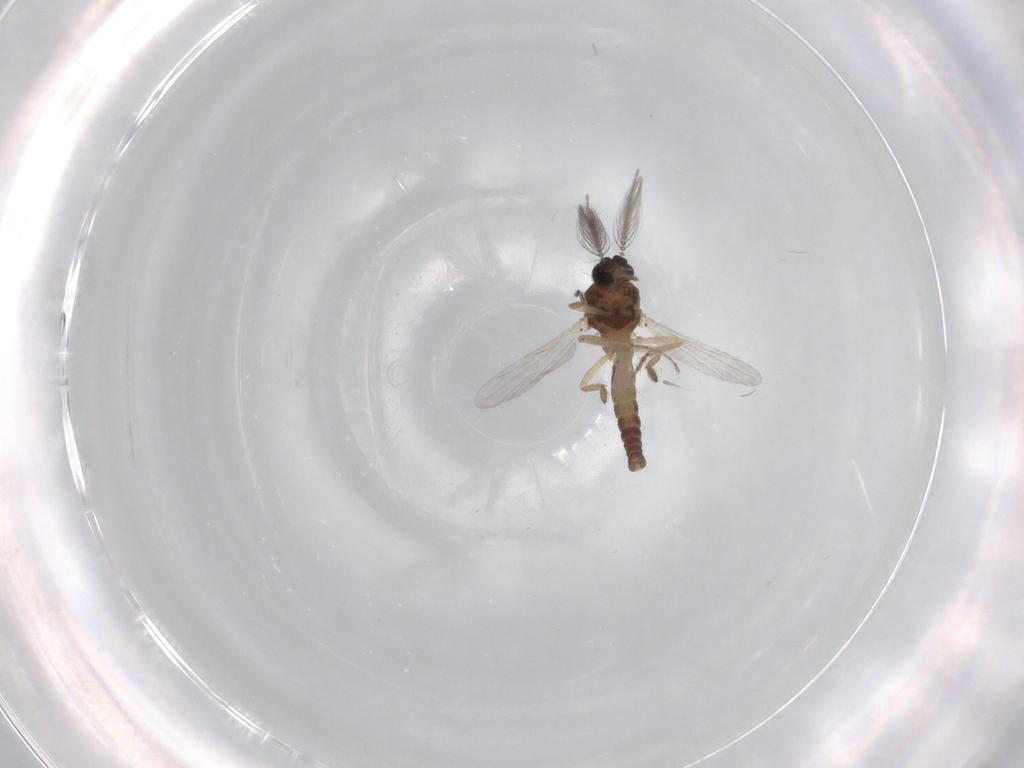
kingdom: Animalia
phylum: Arthropoda
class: Insecta
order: Diptera
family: Ceratopogonidae
